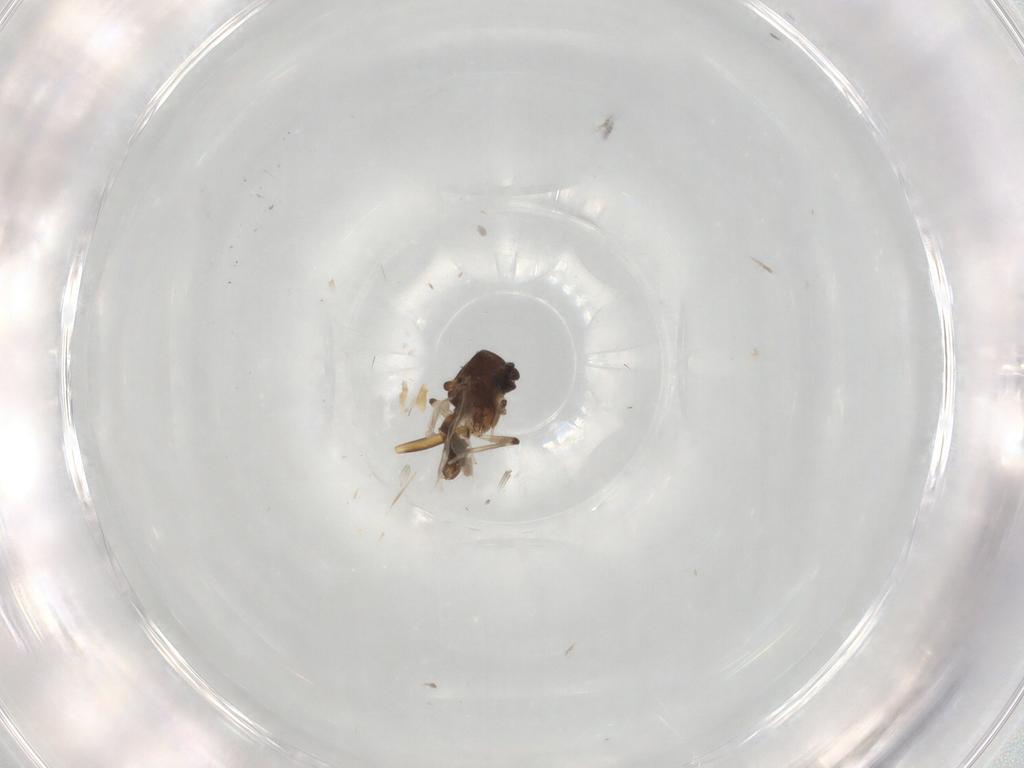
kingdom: Animalia
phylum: Arthropoda
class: Insecta
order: Diptera
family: Ceratopogonidae
